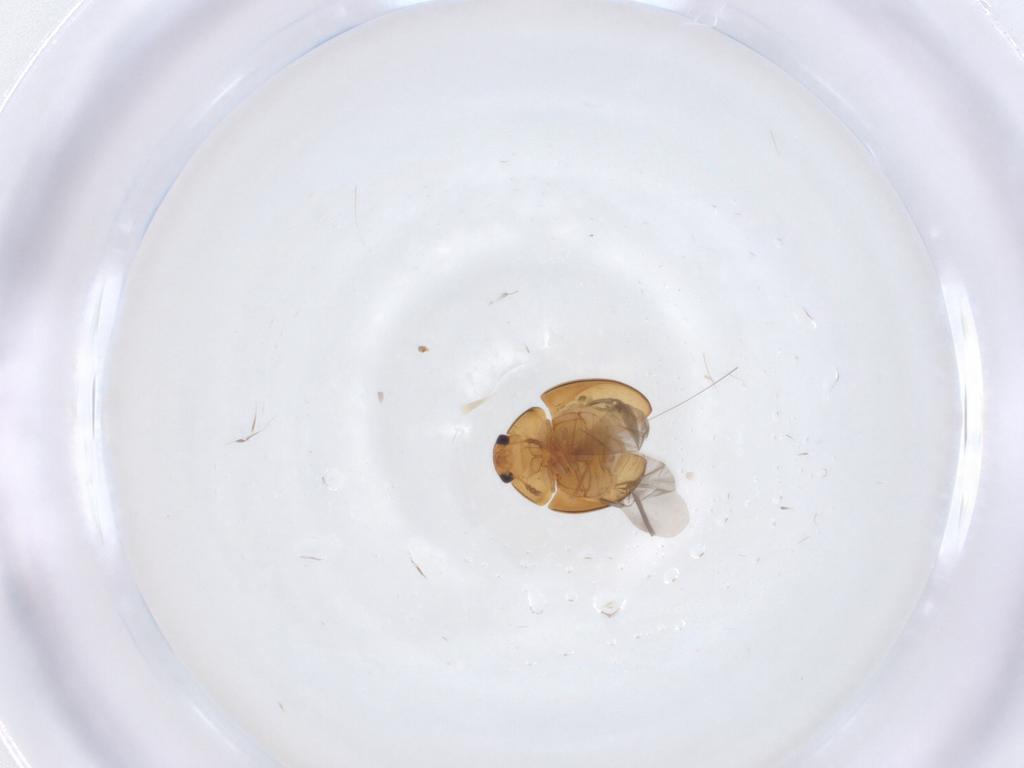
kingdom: Animalia
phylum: Arthropoda
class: Insecta
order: Coleoptera
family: Phalacridae
